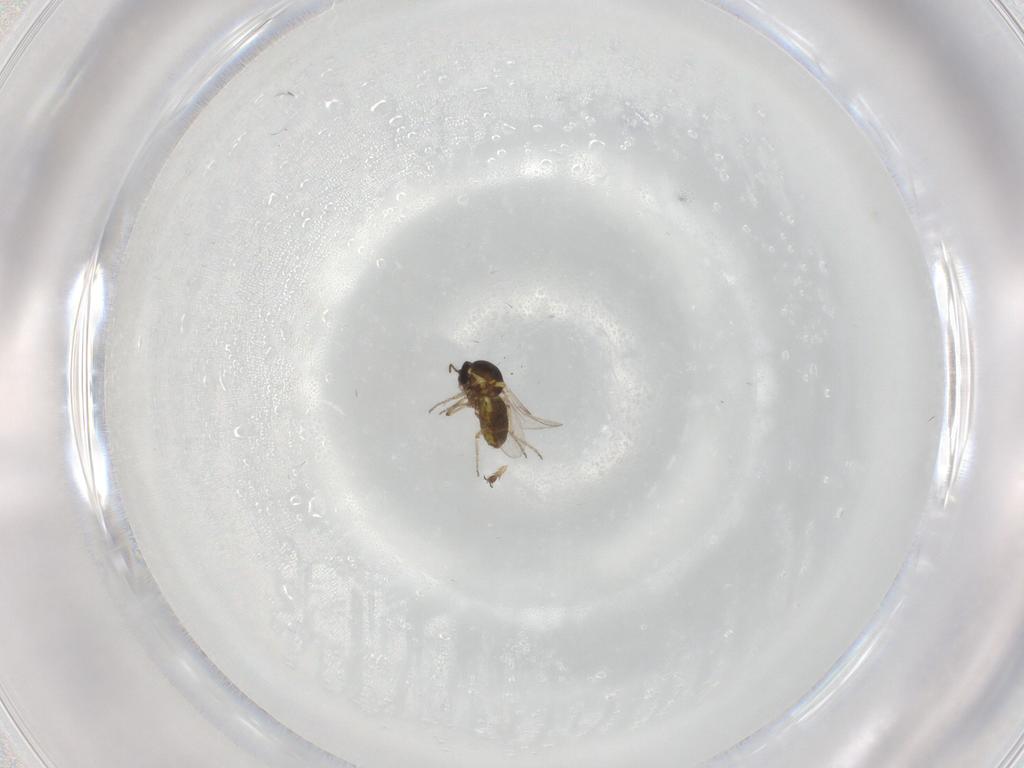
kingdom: Animalia
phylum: Arthropoda
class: Insecta
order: Diptera
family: Ceratopogonidae
